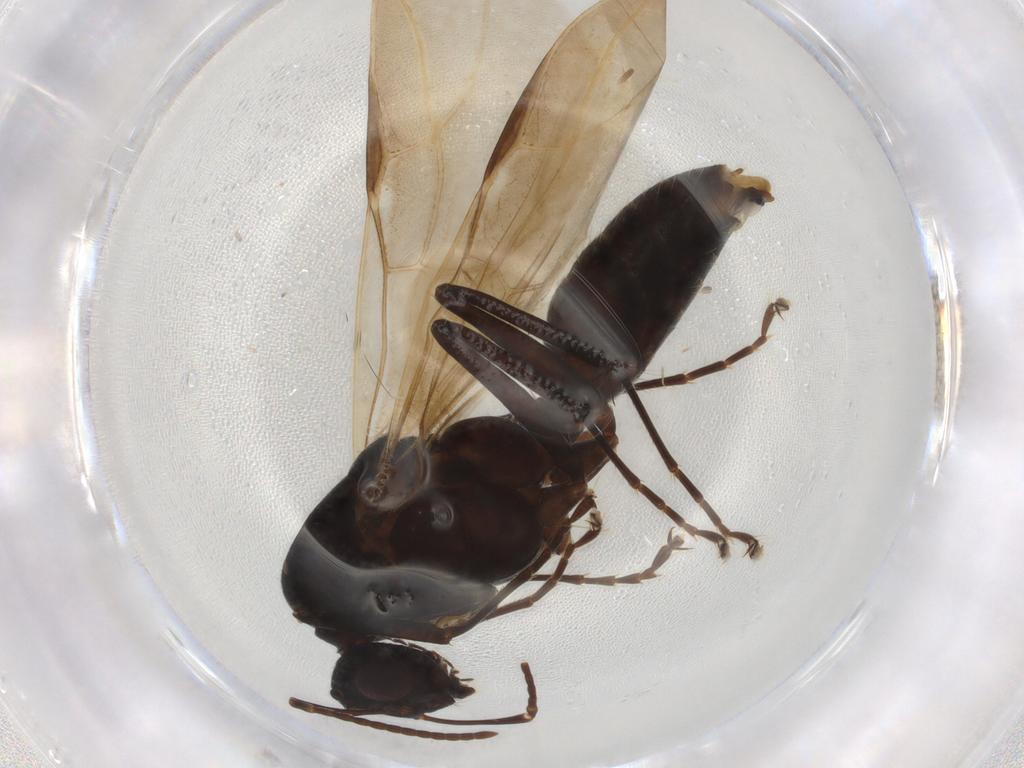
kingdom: Animalia
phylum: Arthropoda
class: Insecta
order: Hymenoptera
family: Formicidae
